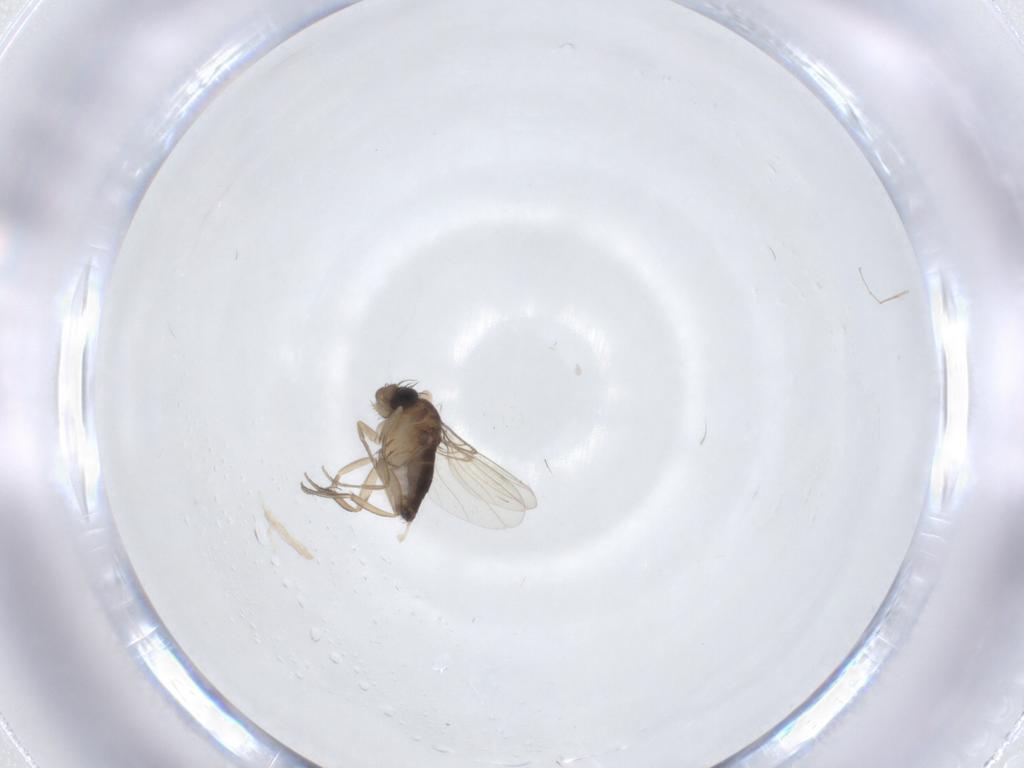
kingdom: Animalia
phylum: Arthropoda
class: Insecta
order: Diptera
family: Phoridae
